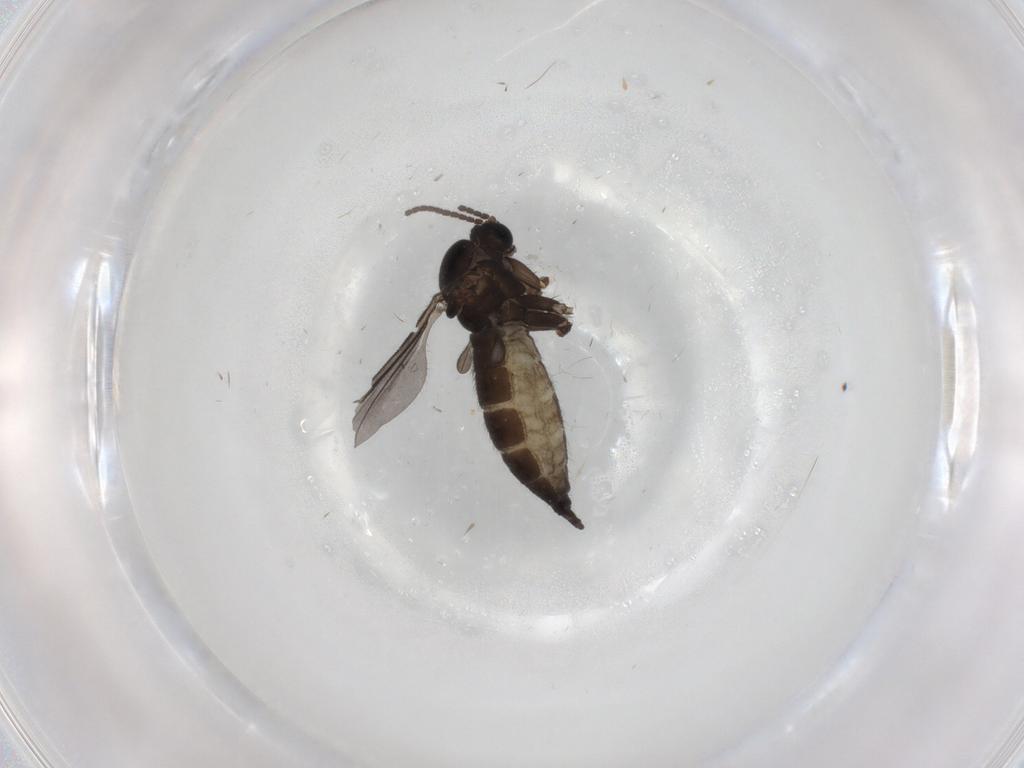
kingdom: Animalia
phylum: Arthropoda
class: Insecta
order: Diptera
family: Sciaridae
